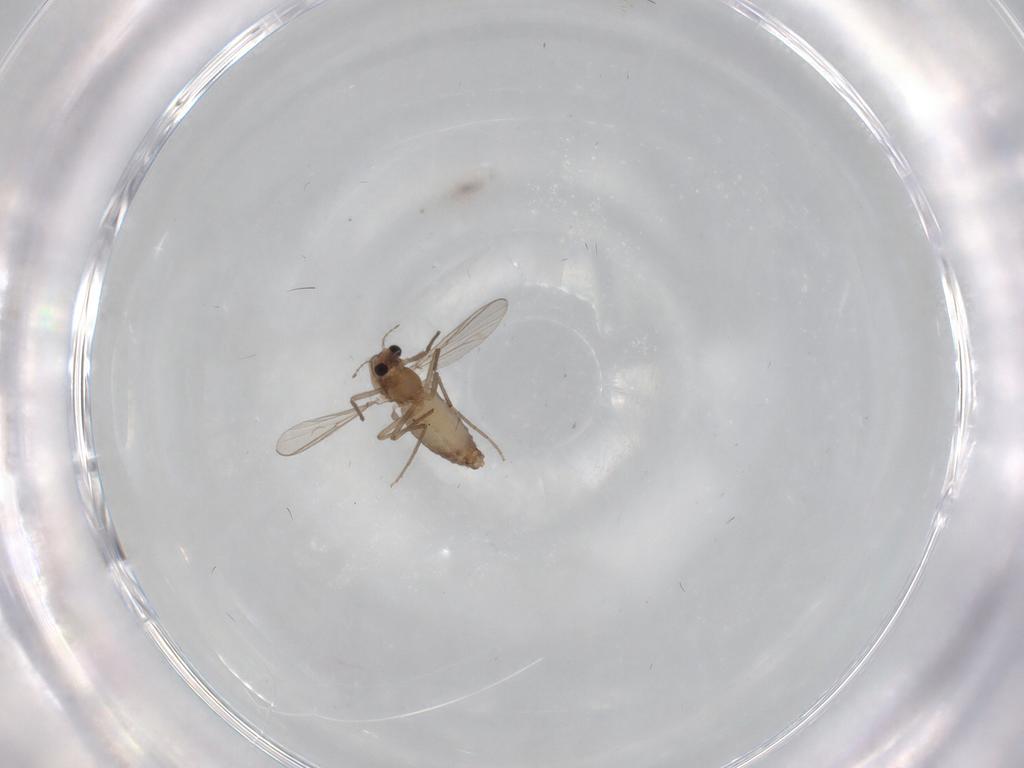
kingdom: Animalia
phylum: Arthropoda
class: Insecta
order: Diptera
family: Chironomidae
